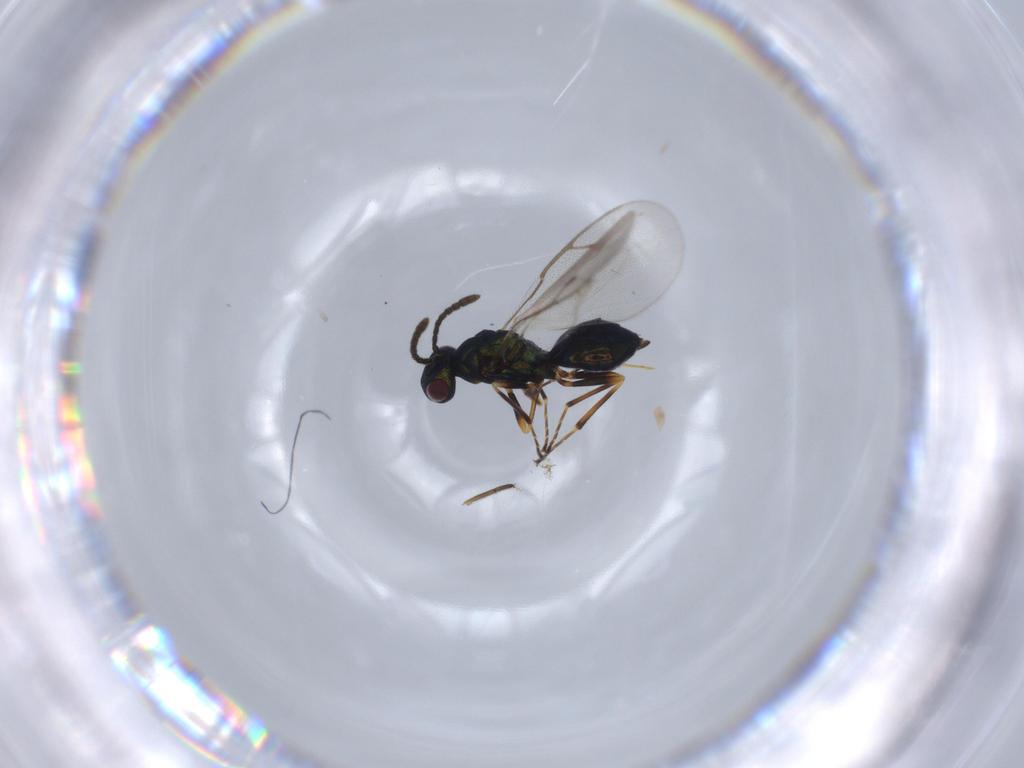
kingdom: Animalia
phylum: Arthropoda
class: Insecta
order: Hymenoptera
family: Pteromalidae
